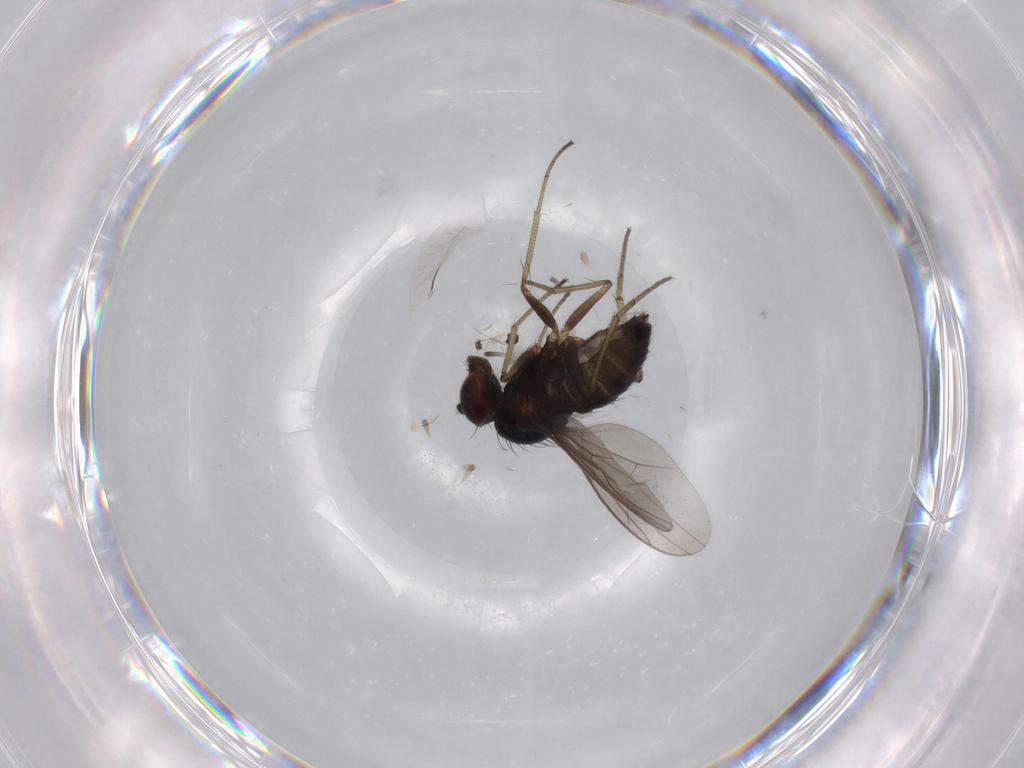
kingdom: Animalia
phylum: Arthropoda
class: Insecta
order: Diptera
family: Dolichopodidae
